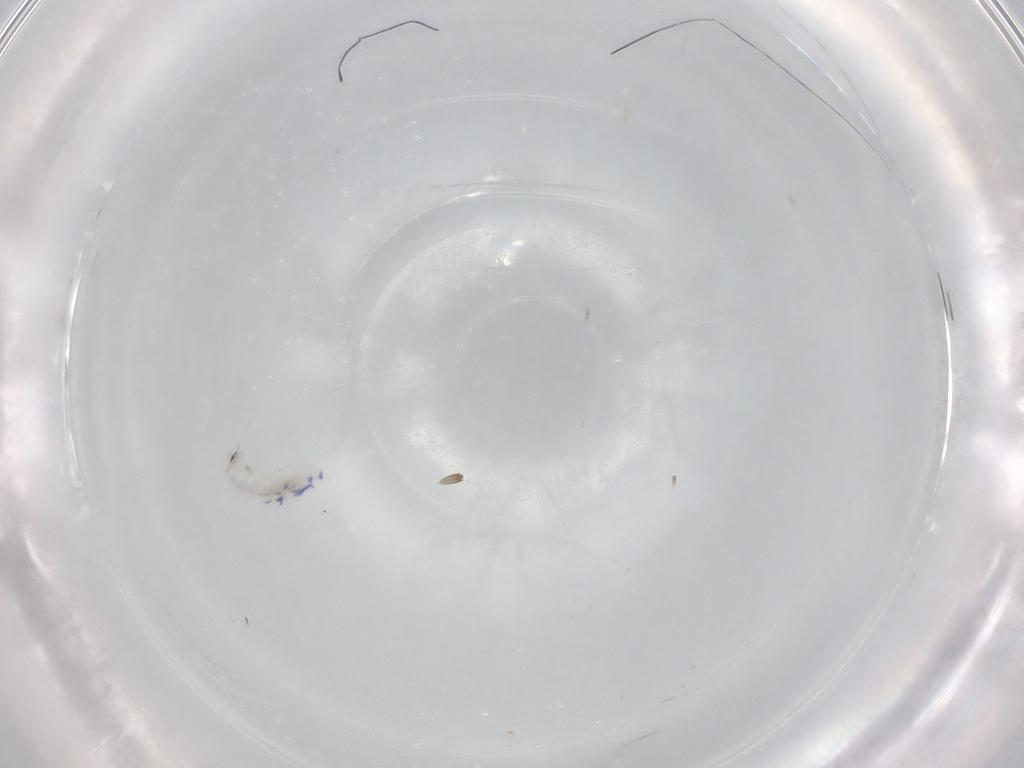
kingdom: Animalia
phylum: Arthropoda
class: Collembola
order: Entomobryomorpha
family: Entomobryidae
